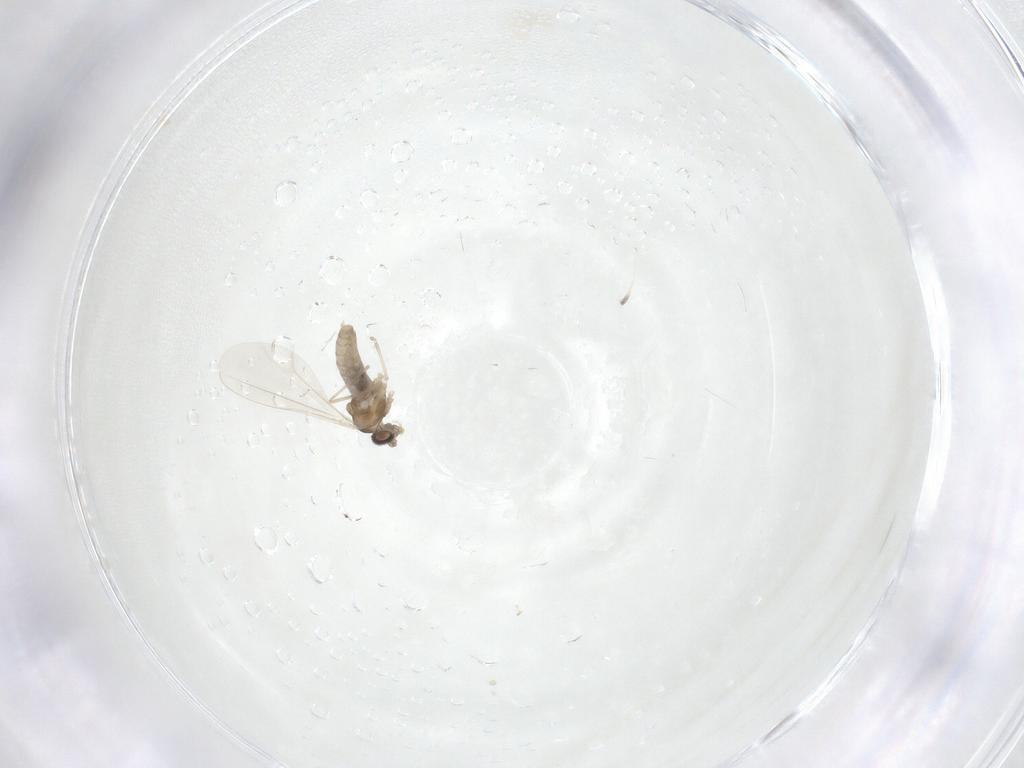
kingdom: Animalia
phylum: Arthropoda
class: Insecta
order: Diptera
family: Cecidomyiidae
